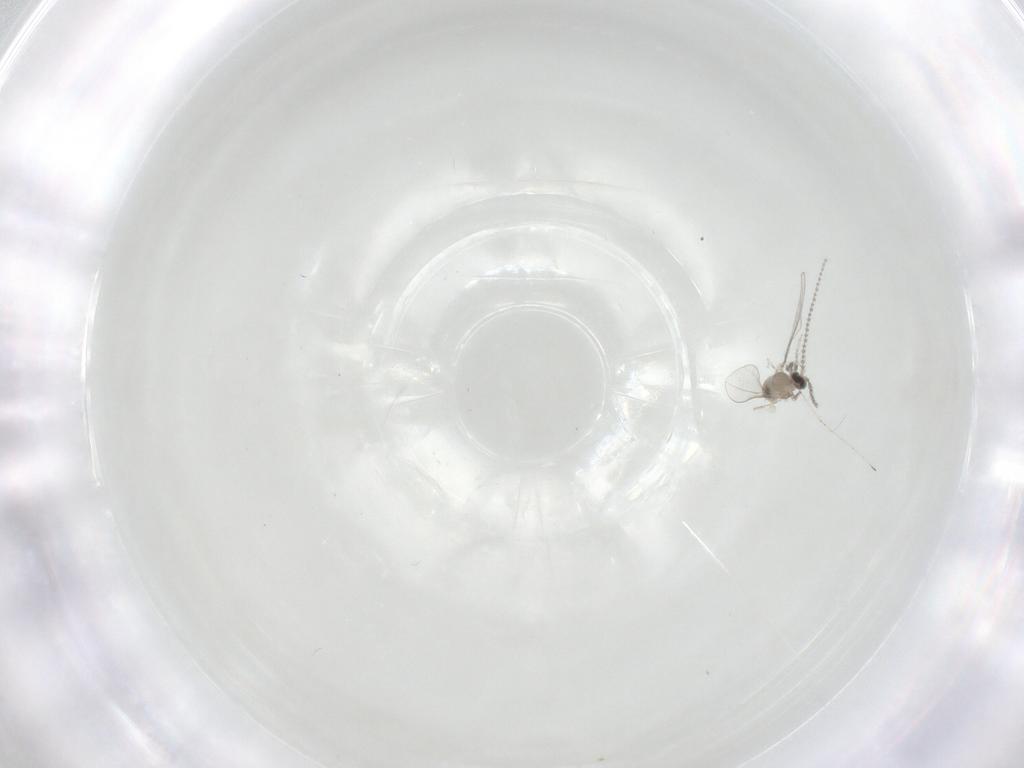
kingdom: Animalia
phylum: Arthropoda
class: Insecta
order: Diptera
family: Cecidomyiidae
